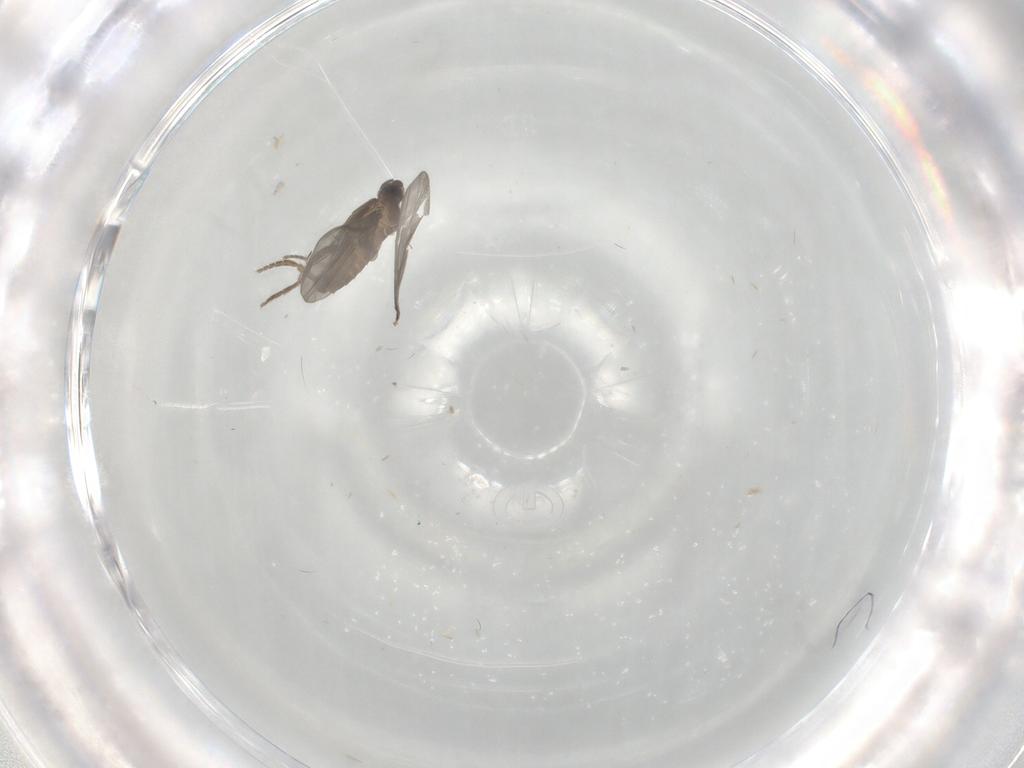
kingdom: Animalia
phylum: Arthropoda
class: Insecta
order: Diptera
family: Phoridae
